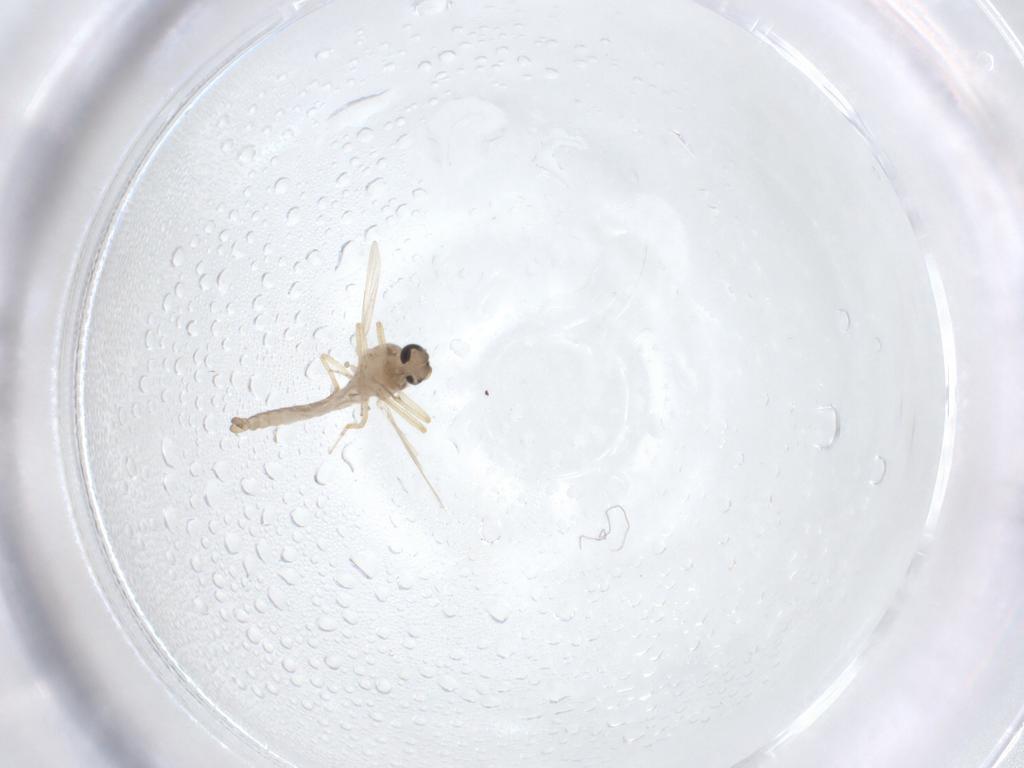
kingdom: Animalia
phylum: Arthropoda
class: Insecta
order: Diptera
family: Ceratopogonidae
